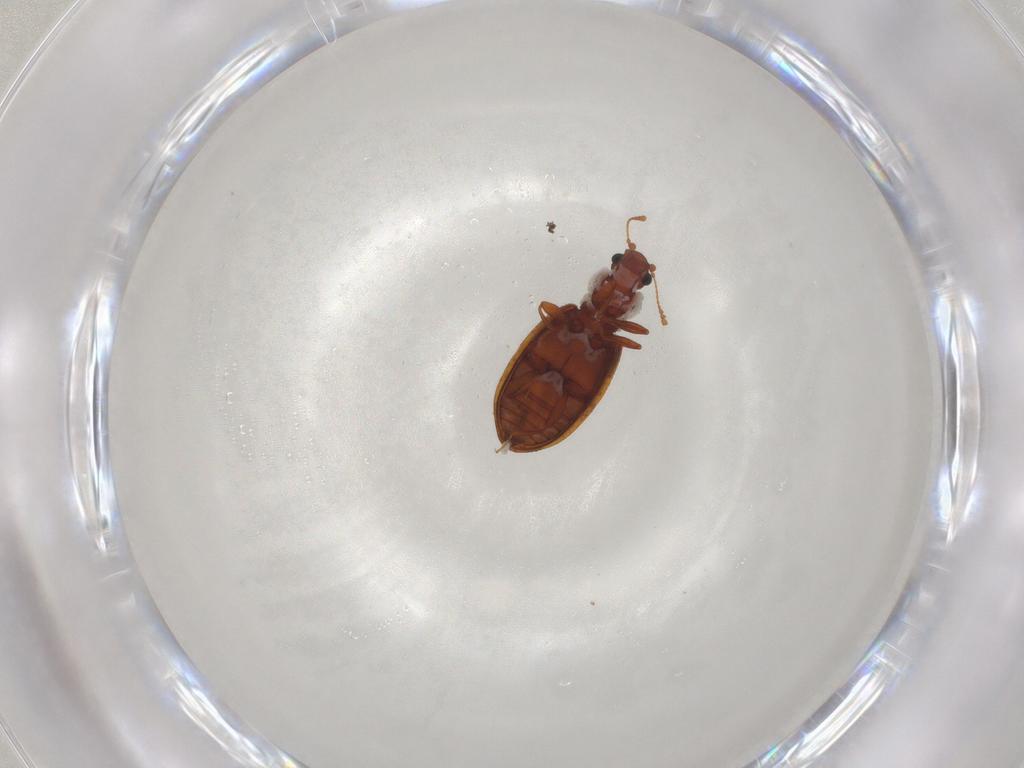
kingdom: Animalia
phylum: Arthropoda
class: Insecta
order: Coleoptera
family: Latridiidae
